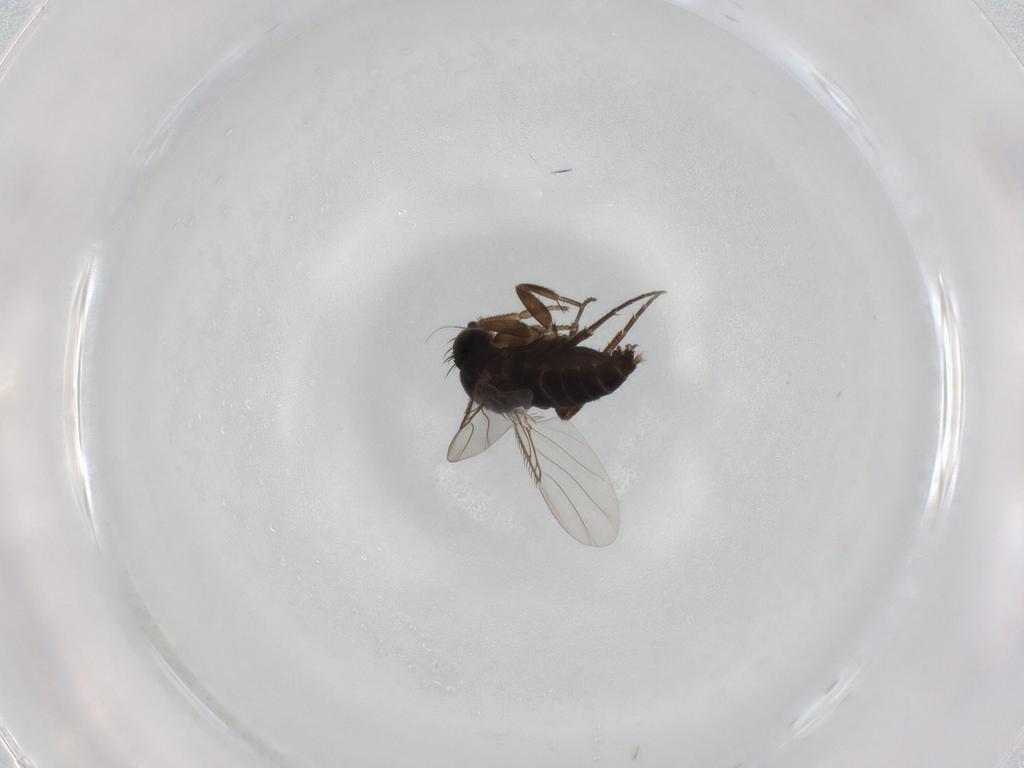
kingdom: Animalia
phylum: Arthropoda
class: Insecta
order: Diptera
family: Phoridae
